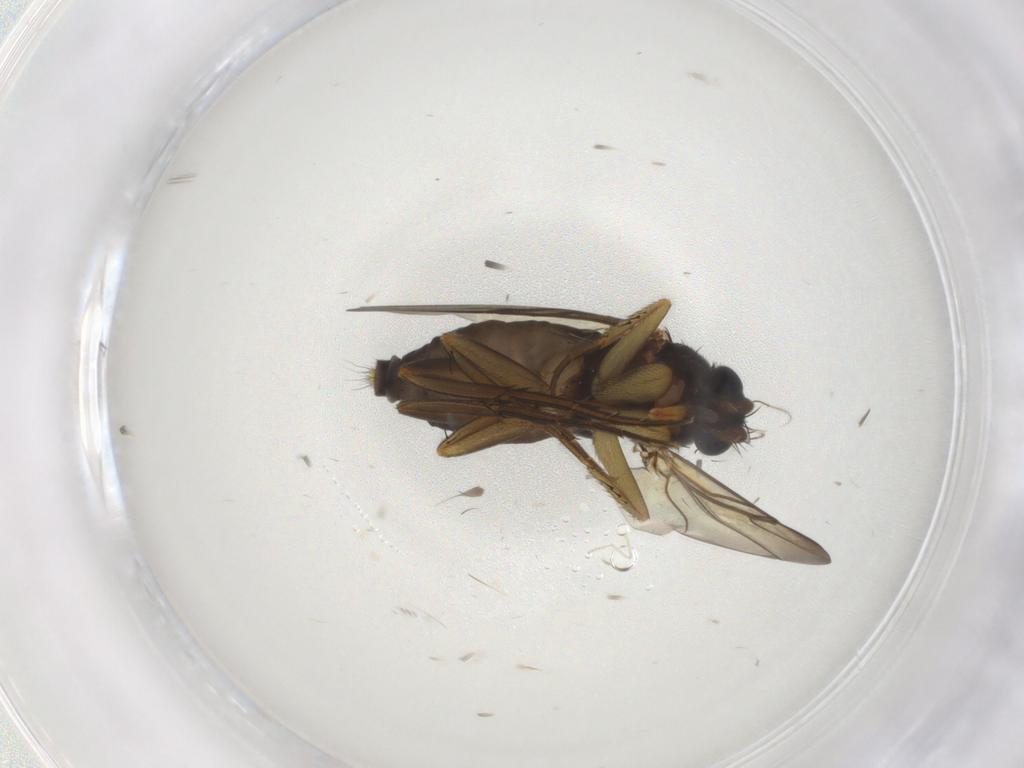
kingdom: Animalia
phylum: Arthropoda
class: Insecta
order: Diptera
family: Phoridae
